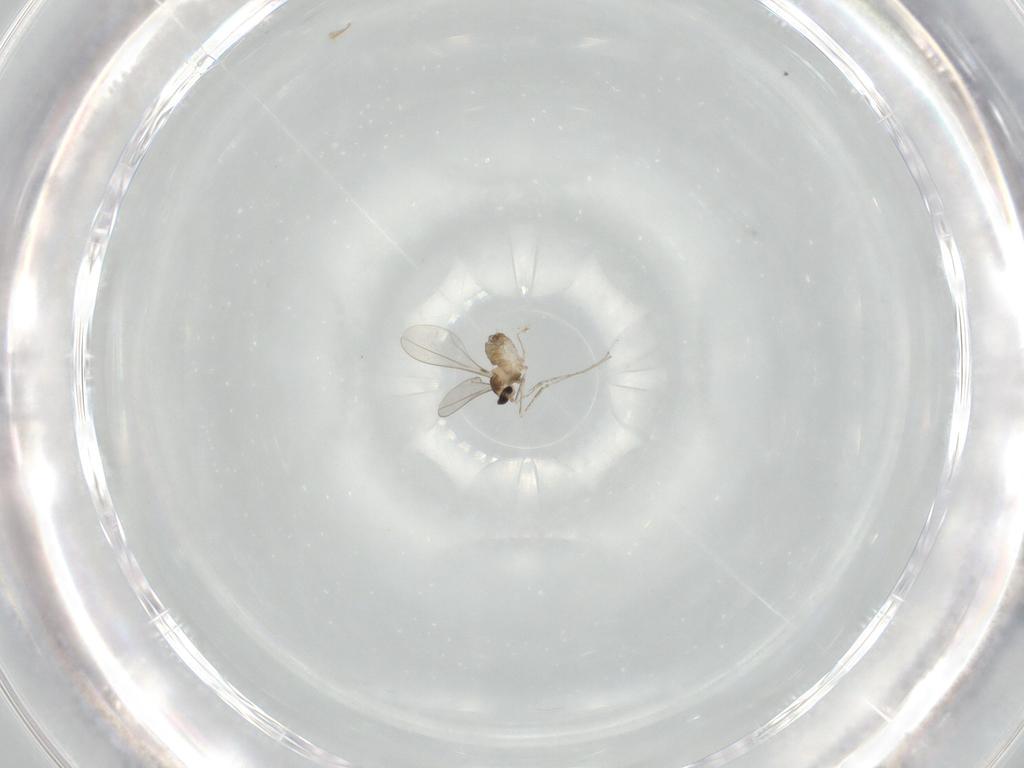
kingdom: Animalia
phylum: Arthropoda
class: Insecta
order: Diptera
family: Cecidomyiidae
